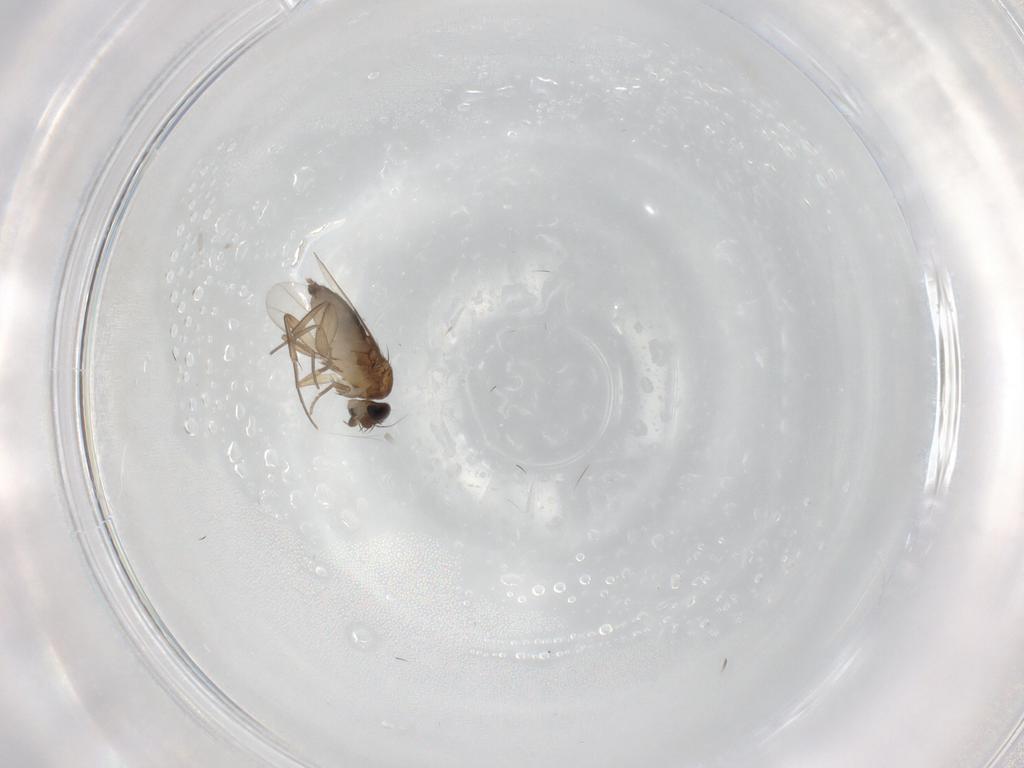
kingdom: Animalia
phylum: Arthropoda
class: Insecta
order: Diptera
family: Phoridae
